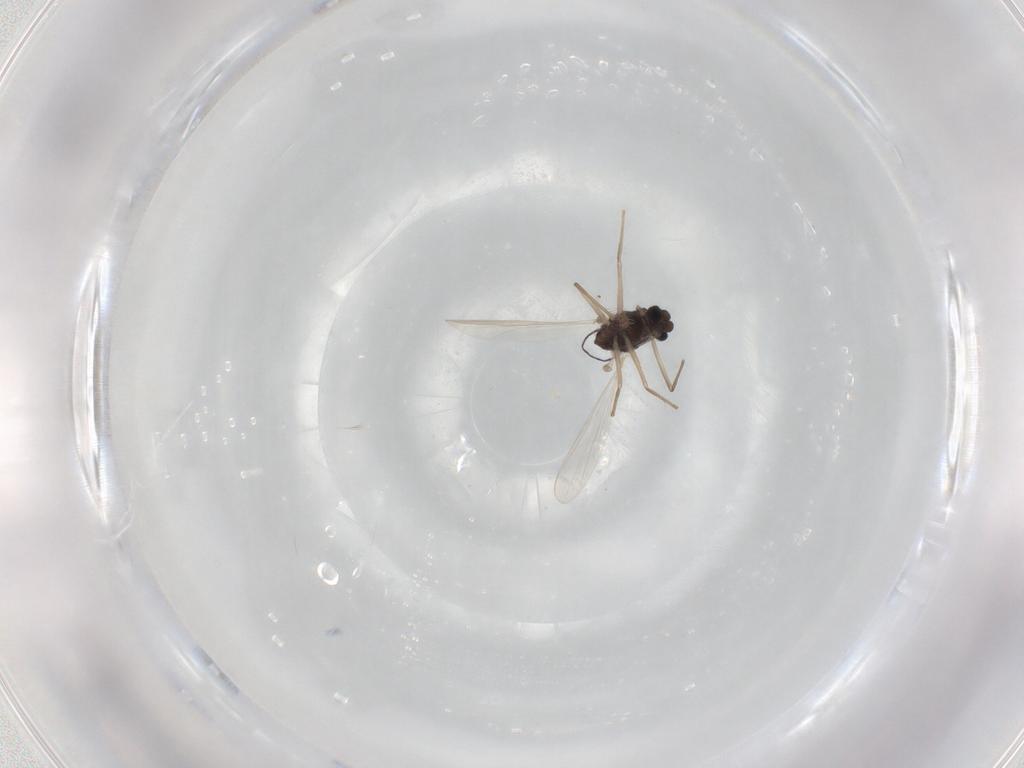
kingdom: Animalia
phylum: Arthropoda
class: Insecta
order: Diptera
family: Chironomidae
